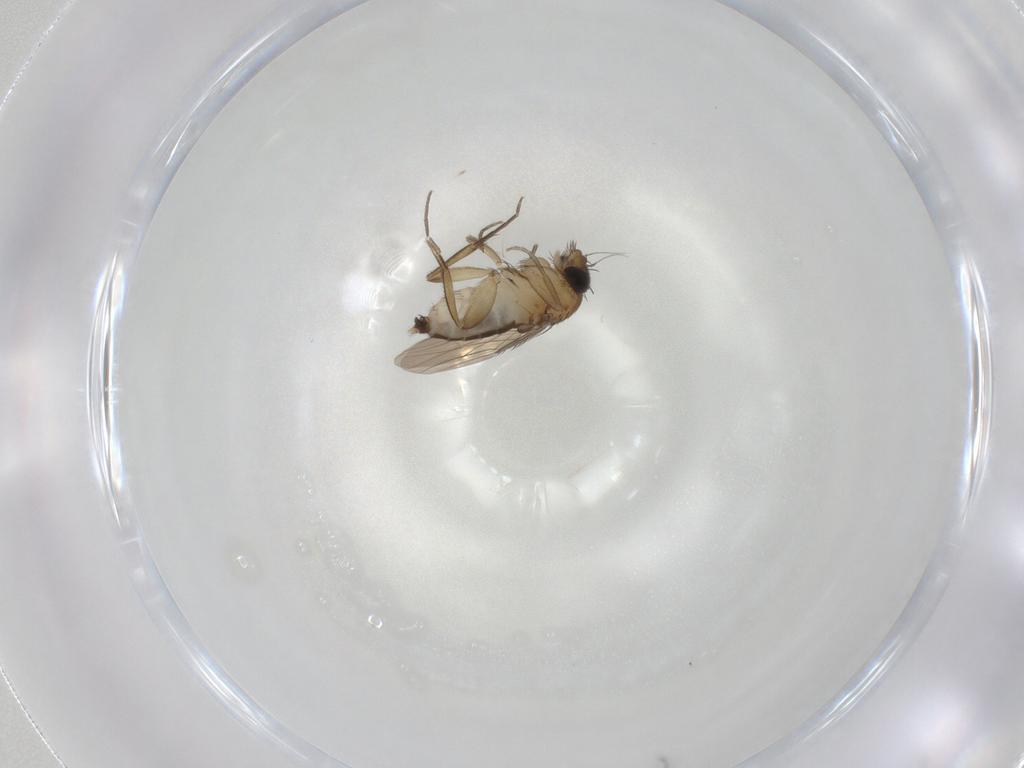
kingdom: Animalia
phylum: Arthropoda
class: Insecta
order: Diptera
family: Phoridae
